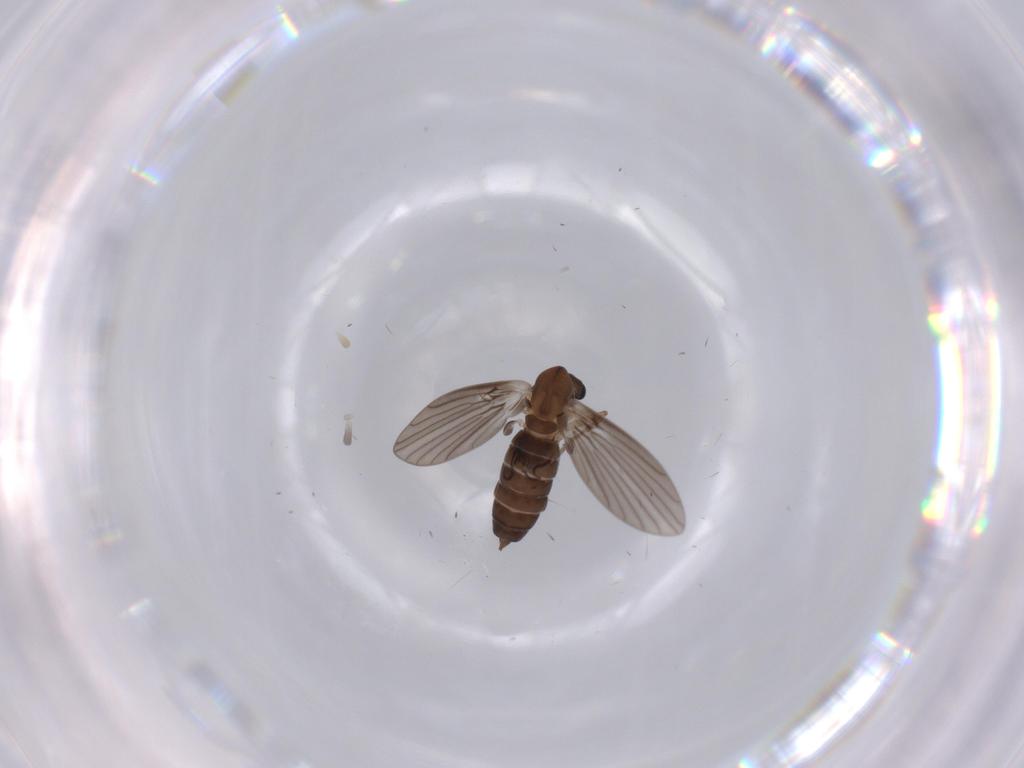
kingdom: Animalia
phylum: Arthropoda
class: Insecta
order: Diptera
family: Psychodidae
